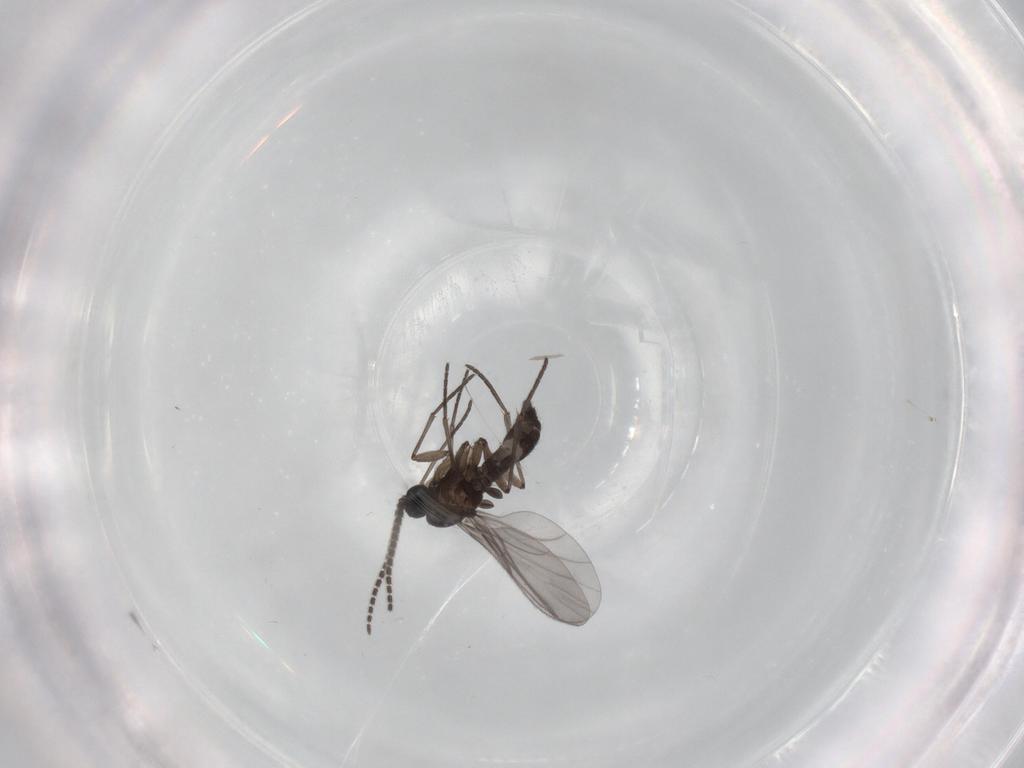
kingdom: Animalia
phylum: Arthropoda
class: Insecta
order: Diptera
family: Sciaridae
